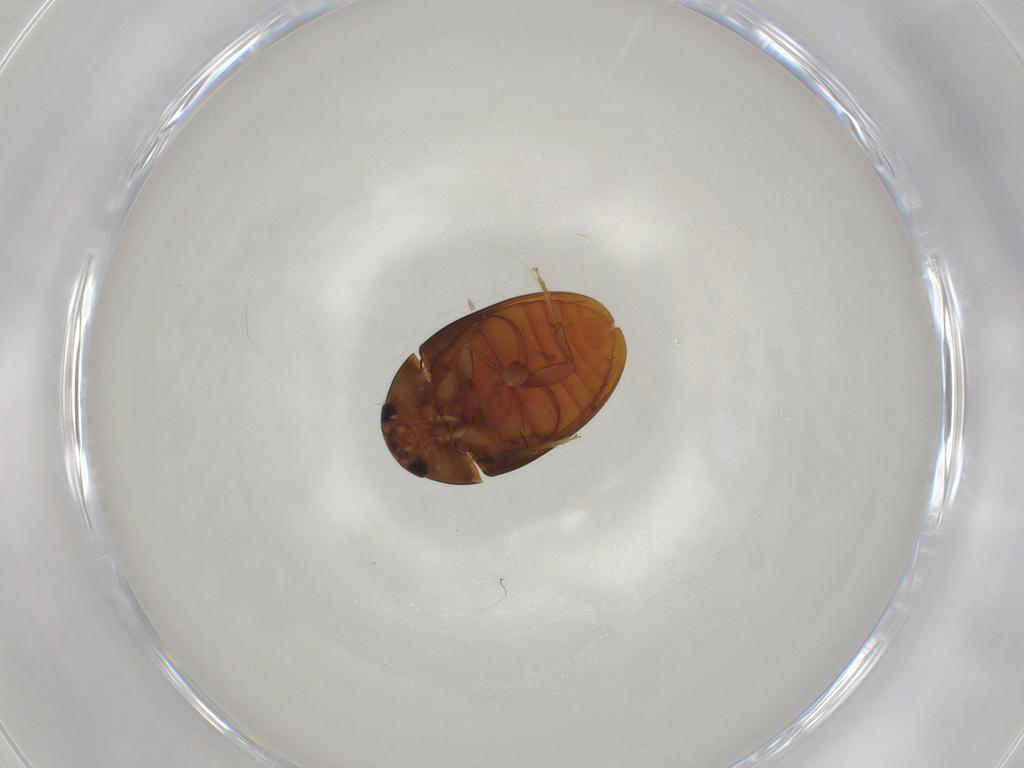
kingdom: Animalia
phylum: Arthropoda
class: Insecta
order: Coleoptera
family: Phalacridae
